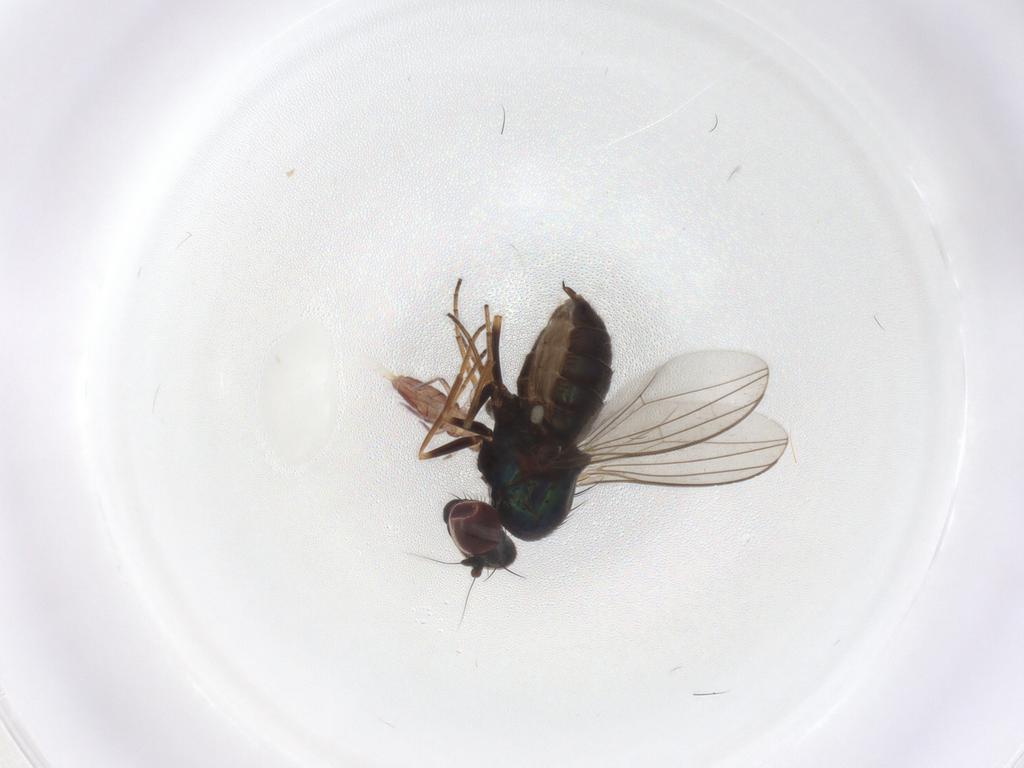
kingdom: Animalia
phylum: Arthropoda
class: Insecta
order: Diptera
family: Dolichopodidae
